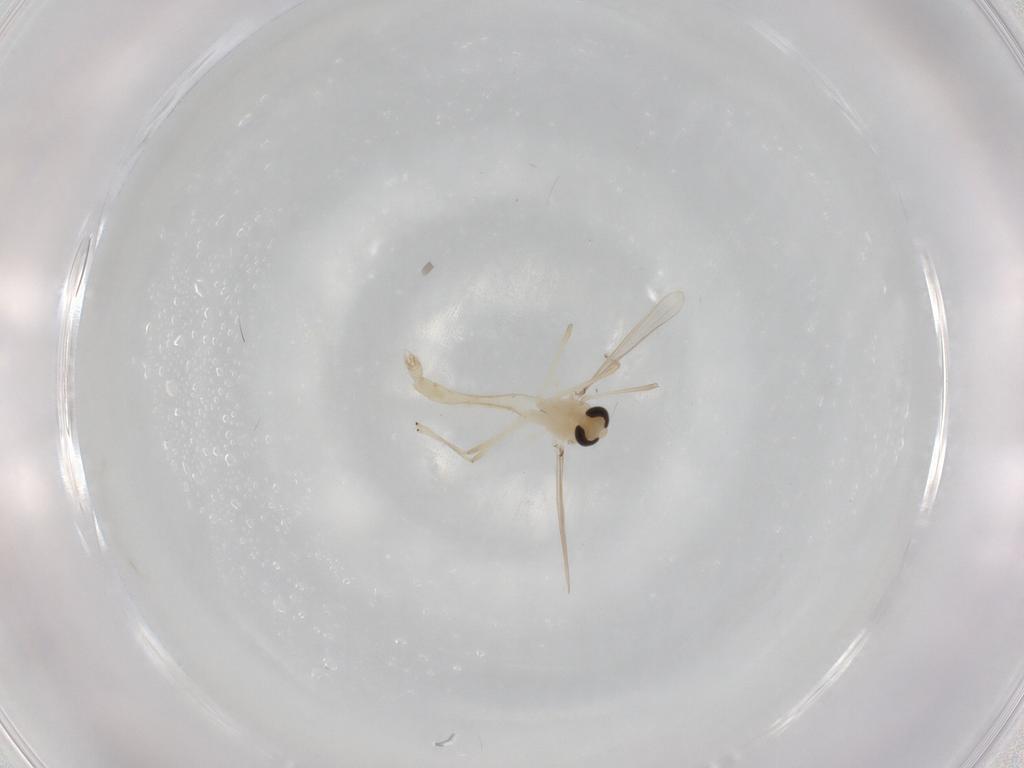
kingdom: Animalia
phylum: Arthropoda
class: Insecta
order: Diptera
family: Chironomidae
